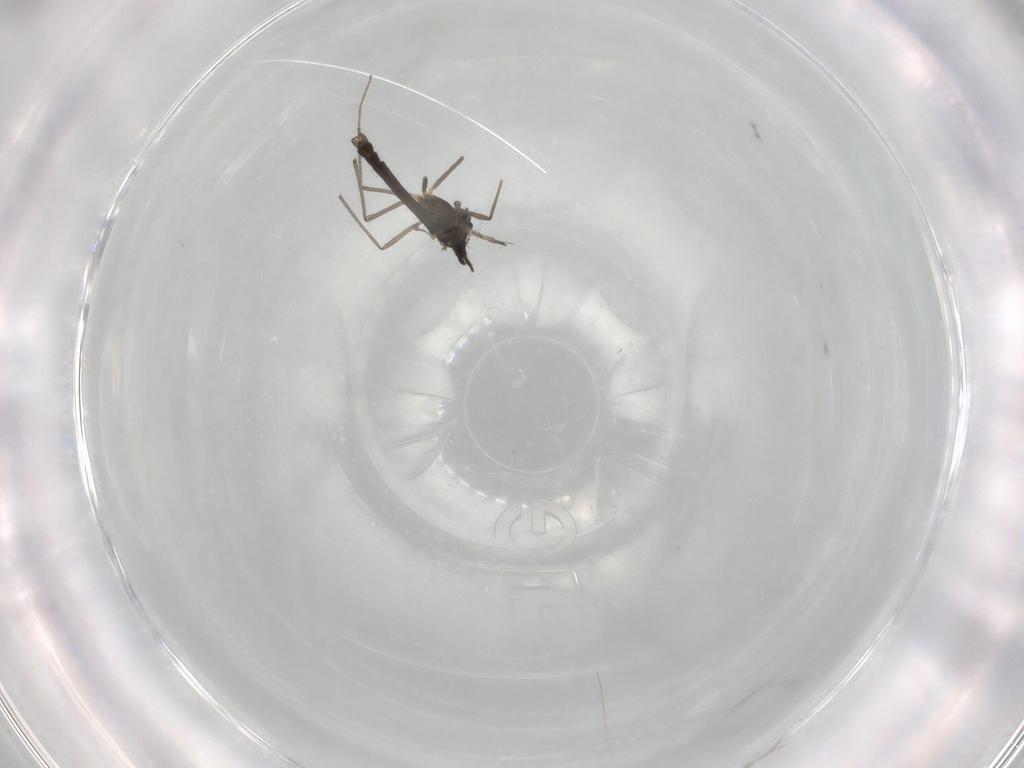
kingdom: Animalia
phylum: Arthropoda
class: Insecta
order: Diptera
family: Chironomidae
